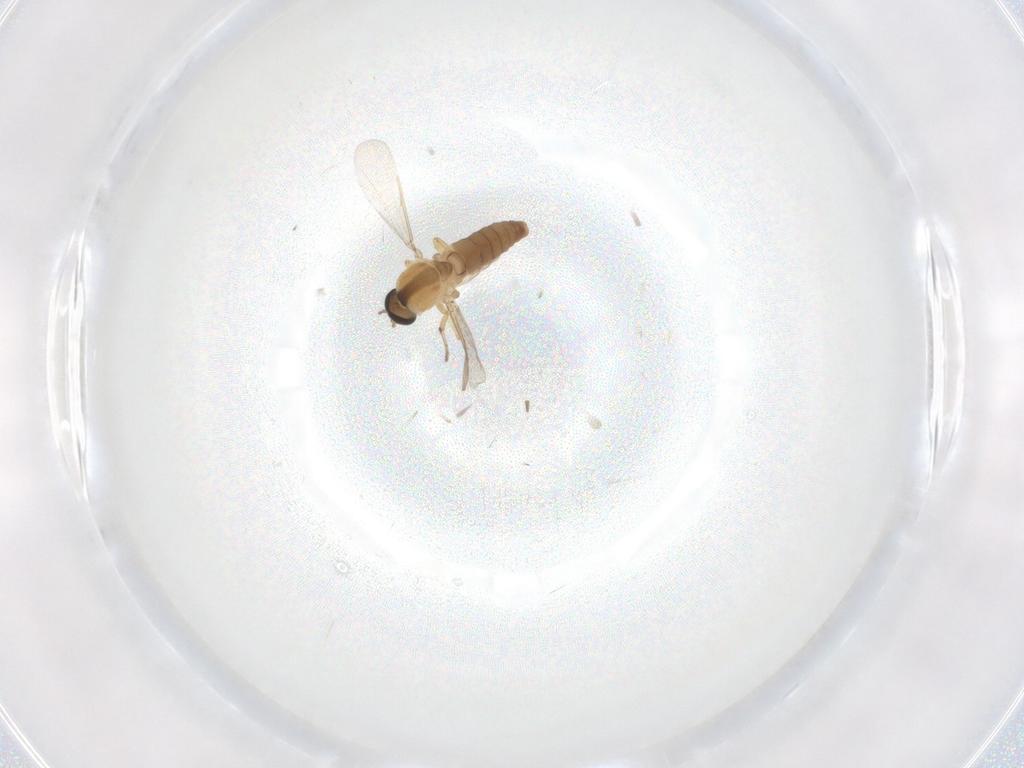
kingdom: Animalia
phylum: Arthropoda
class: Insecta
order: Diptera
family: Ceratopogonidae
